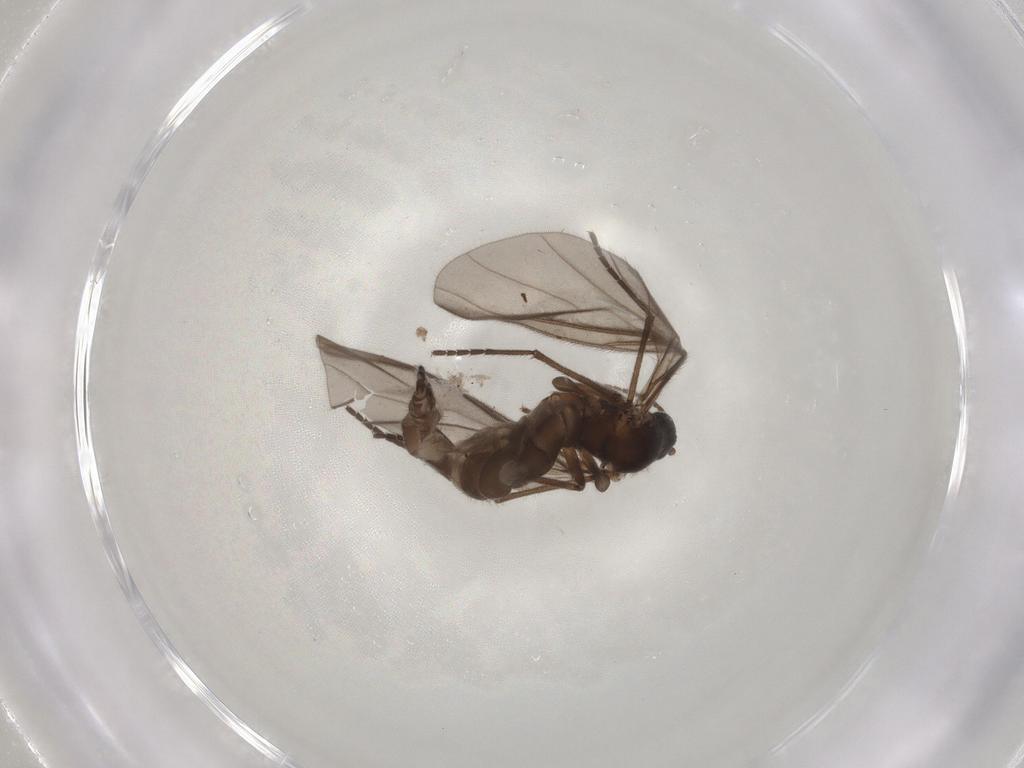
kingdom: Animalia
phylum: Arthropoda
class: Insecta
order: Diptera
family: Sciaridae
